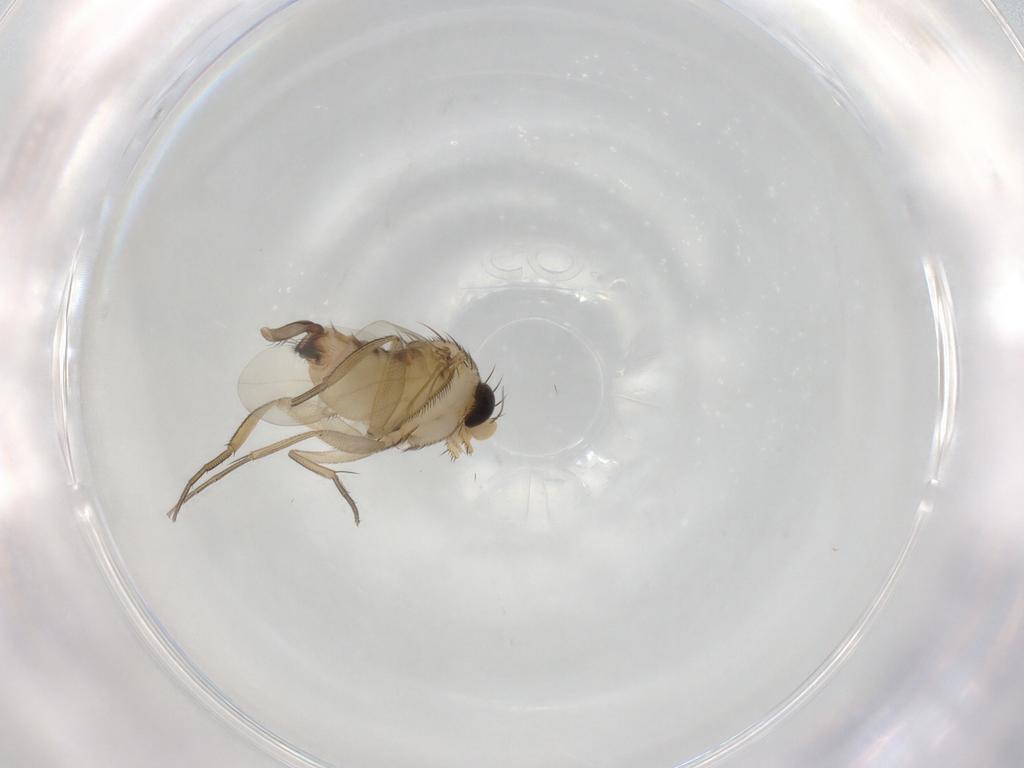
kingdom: Animalia
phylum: Arthropoda
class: Insecta
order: Diptera
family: Phoridae
